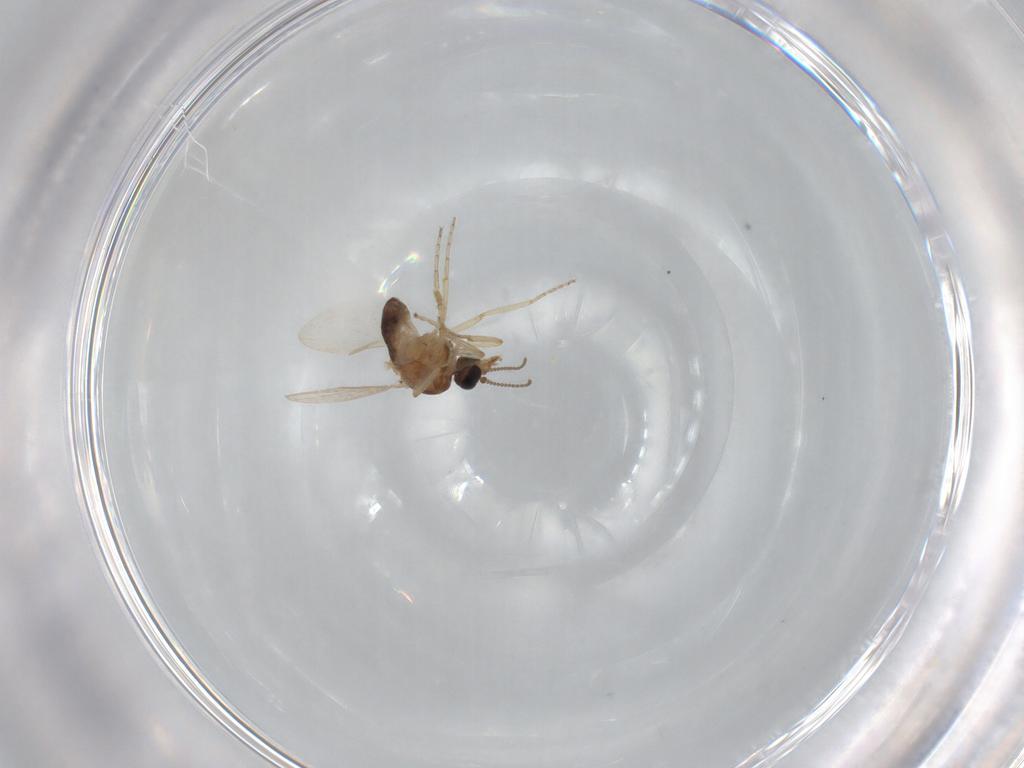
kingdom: Animalia
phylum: Arthropoda
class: Insecta
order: Diptera
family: Ceratopogonidae
